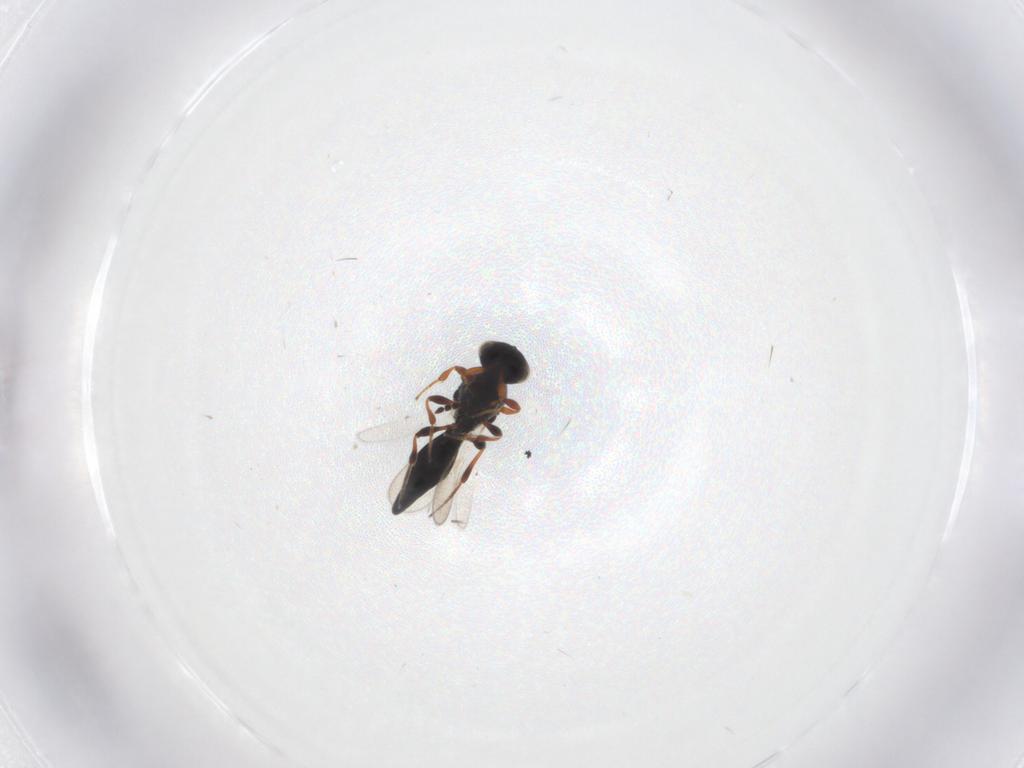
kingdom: Animalia
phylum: Arthropoda
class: Insecta
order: Hymenoptera
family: Platygastridae
